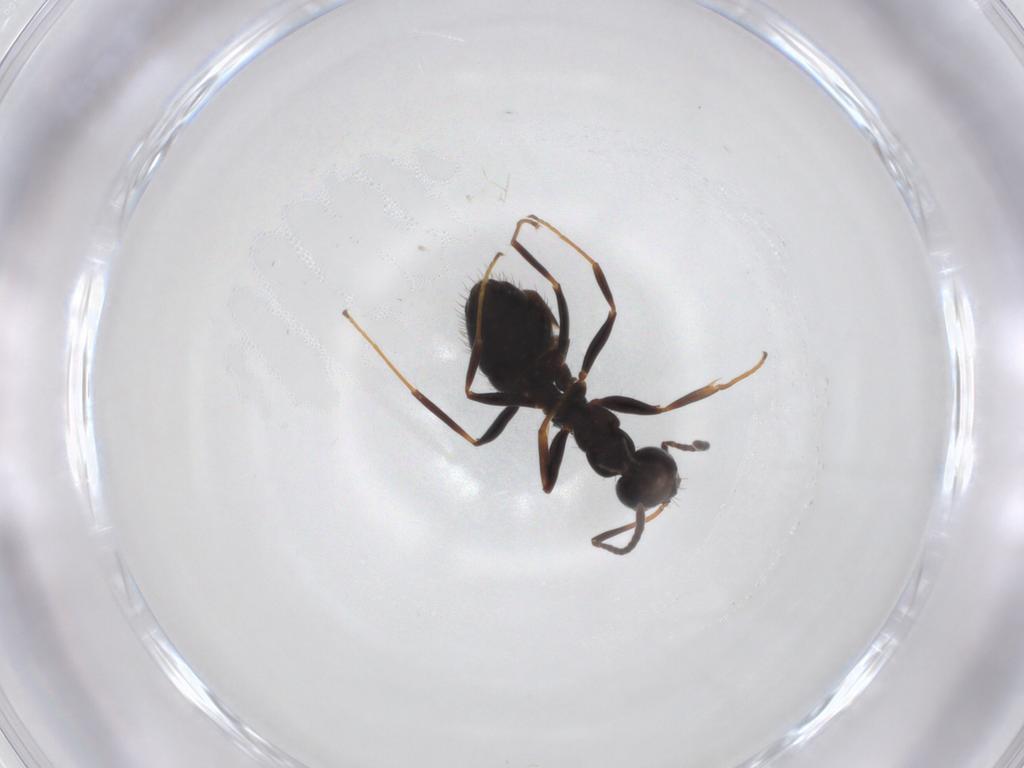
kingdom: Animalia
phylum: Arthropoda
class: Insecta
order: Hymenoptera
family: Formicidae
